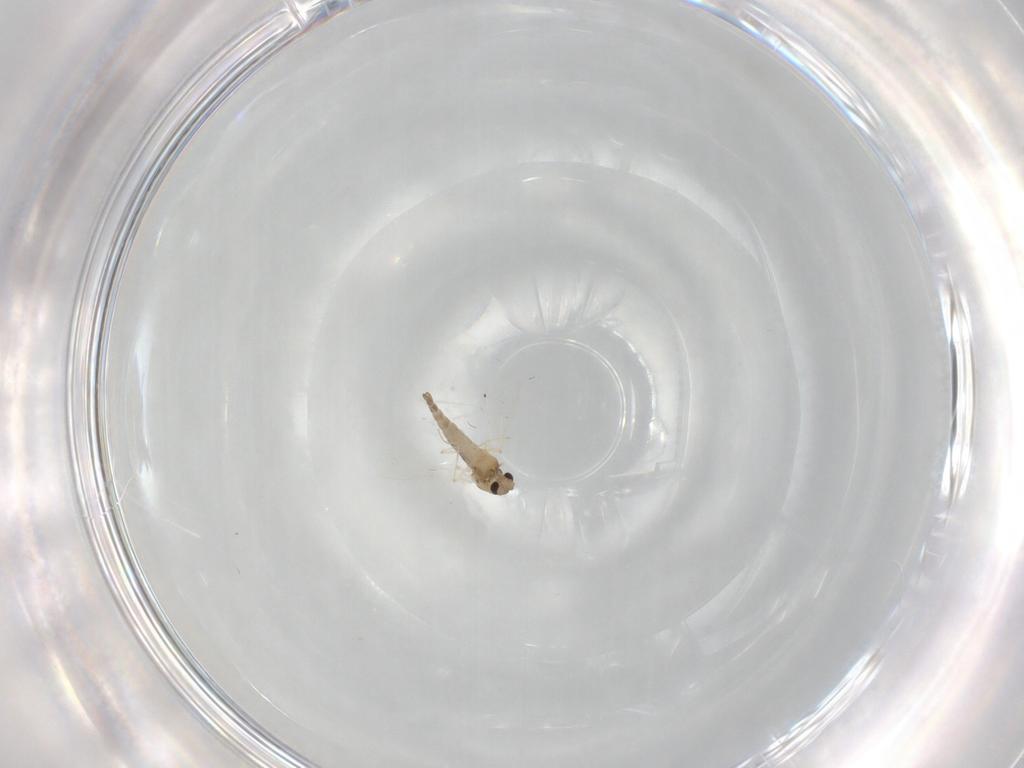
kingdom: Animalia
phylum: Arthropoda
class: Insecta
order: Diptera
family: Chironomidae
